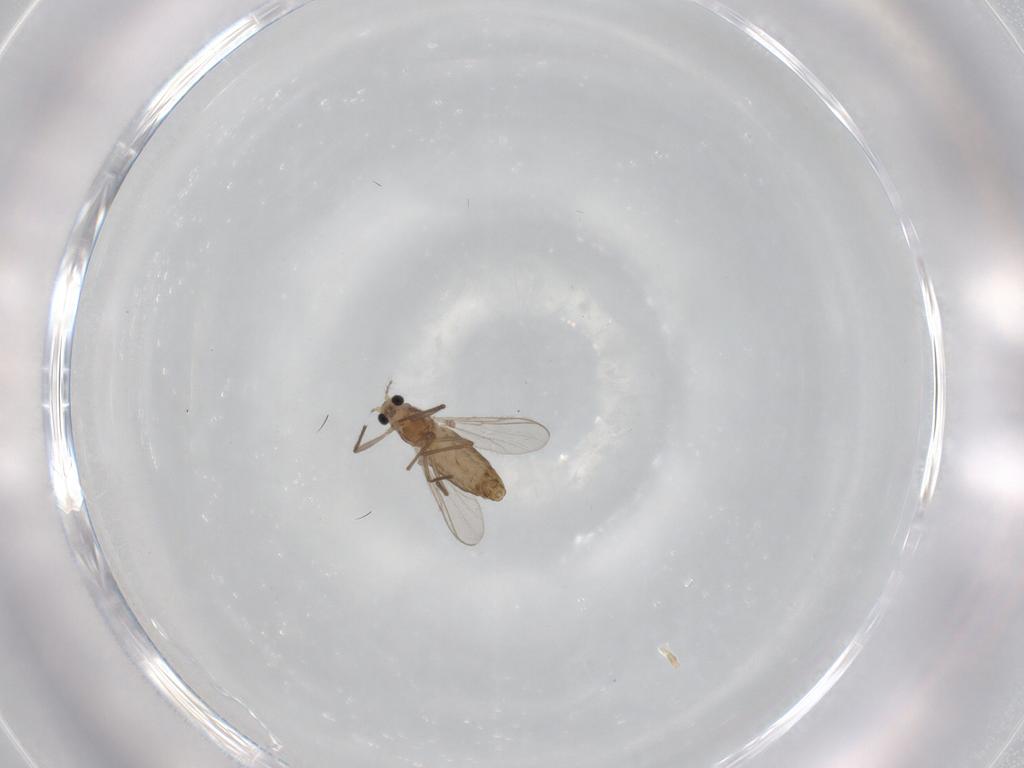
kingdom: Animalia
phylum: Arthropoda
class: Insecta
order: Diptera
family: Chironomidae
